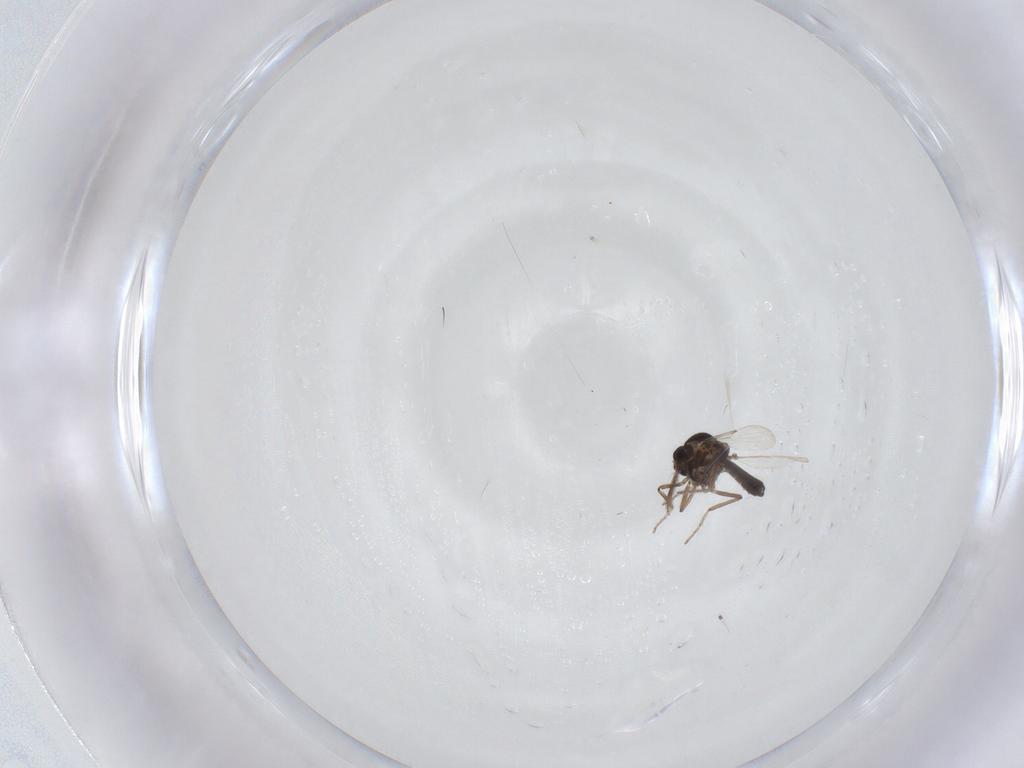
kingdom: Animalia
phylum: Arthropoda
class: Insecta
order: Diptera
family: Ceratopogonidae
